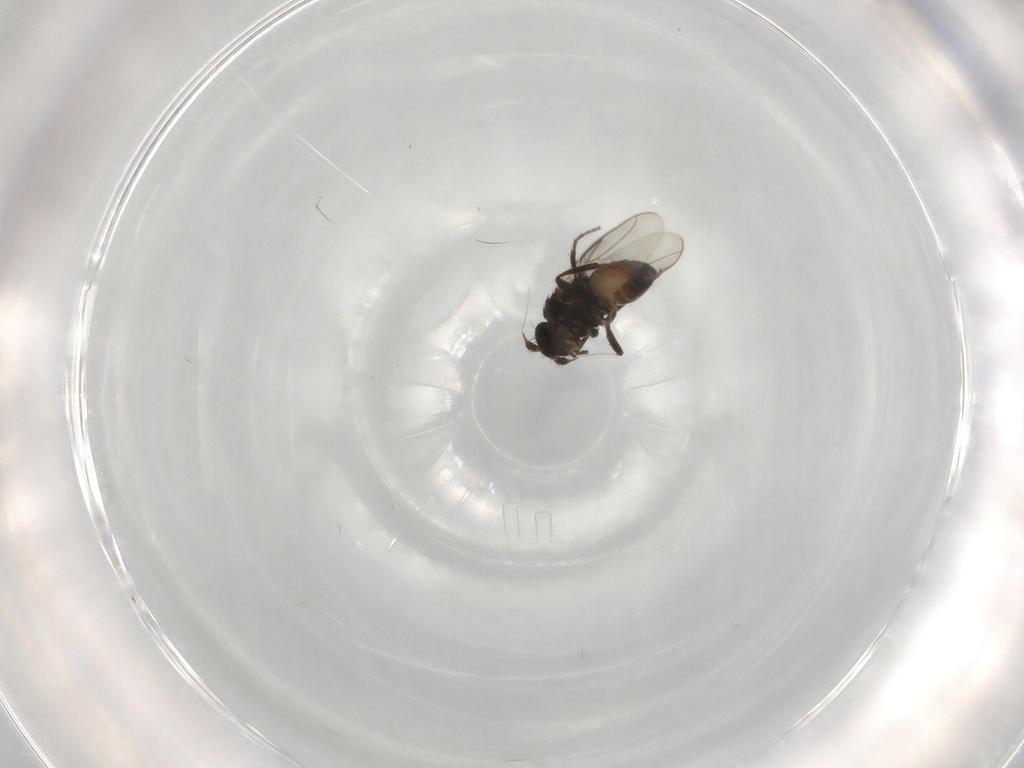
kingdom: Animalia
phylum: Arthropoda
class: Insecta
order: Diptera
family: Sphaeroceridae
